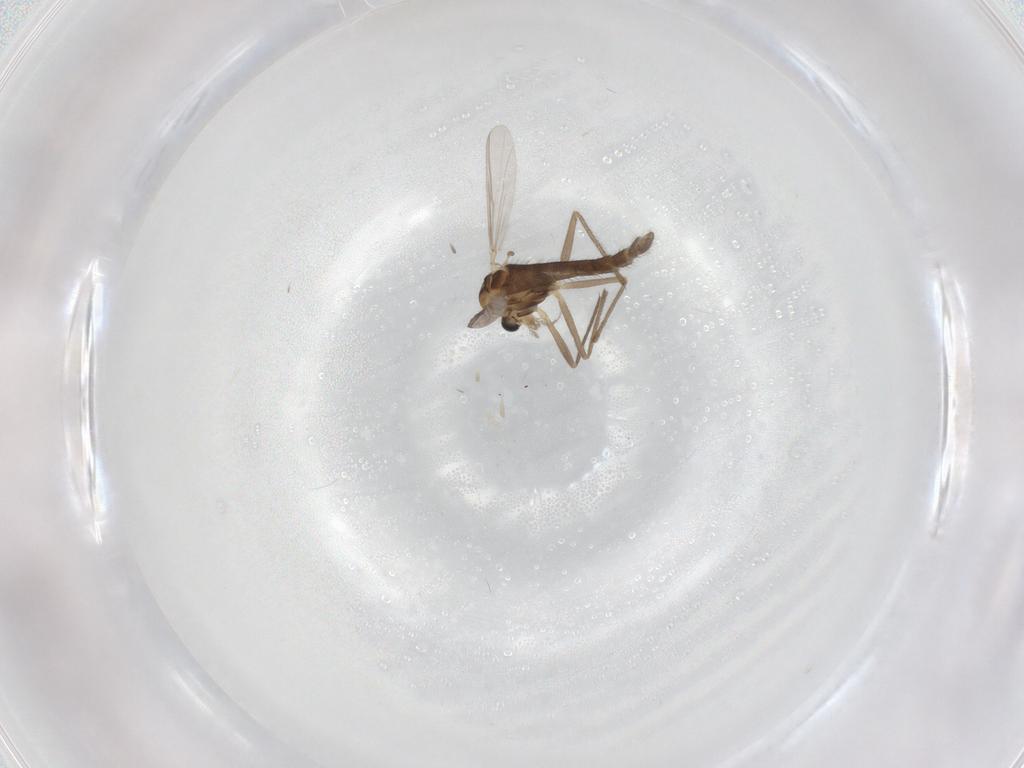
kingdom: Animalia
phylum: Arthropoda
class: Insecta
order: Diptera
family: Chironomidae
